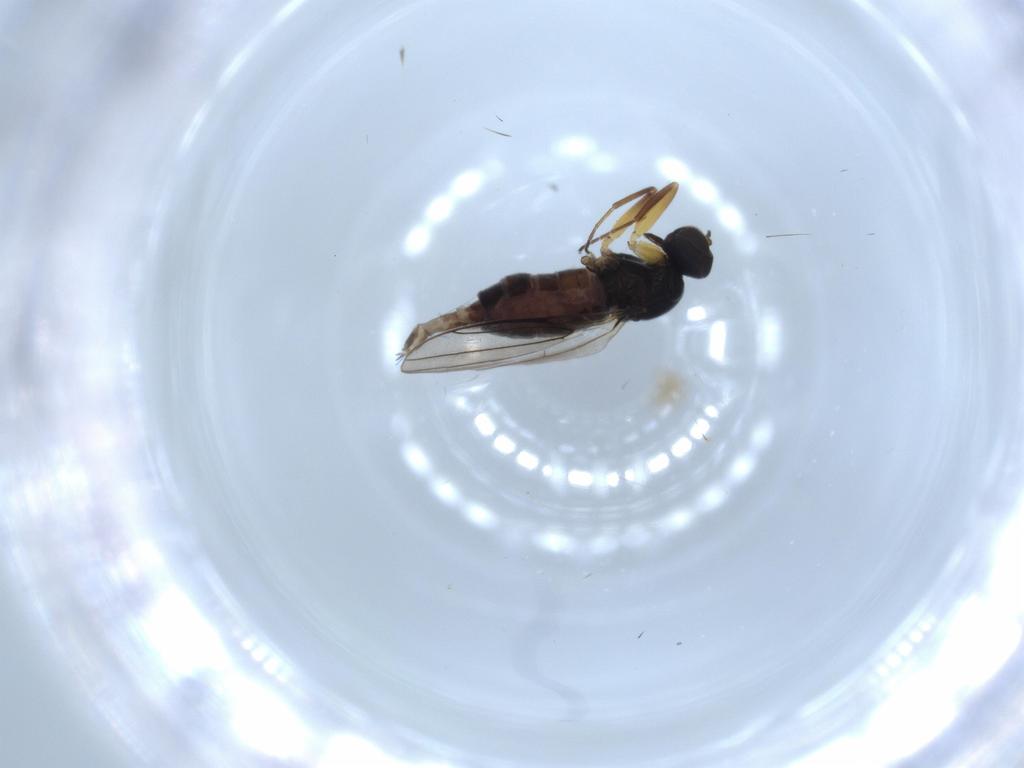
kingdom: Animalia
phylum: Arthropoda
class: Insecta
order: Diptera
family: Hybotidae
